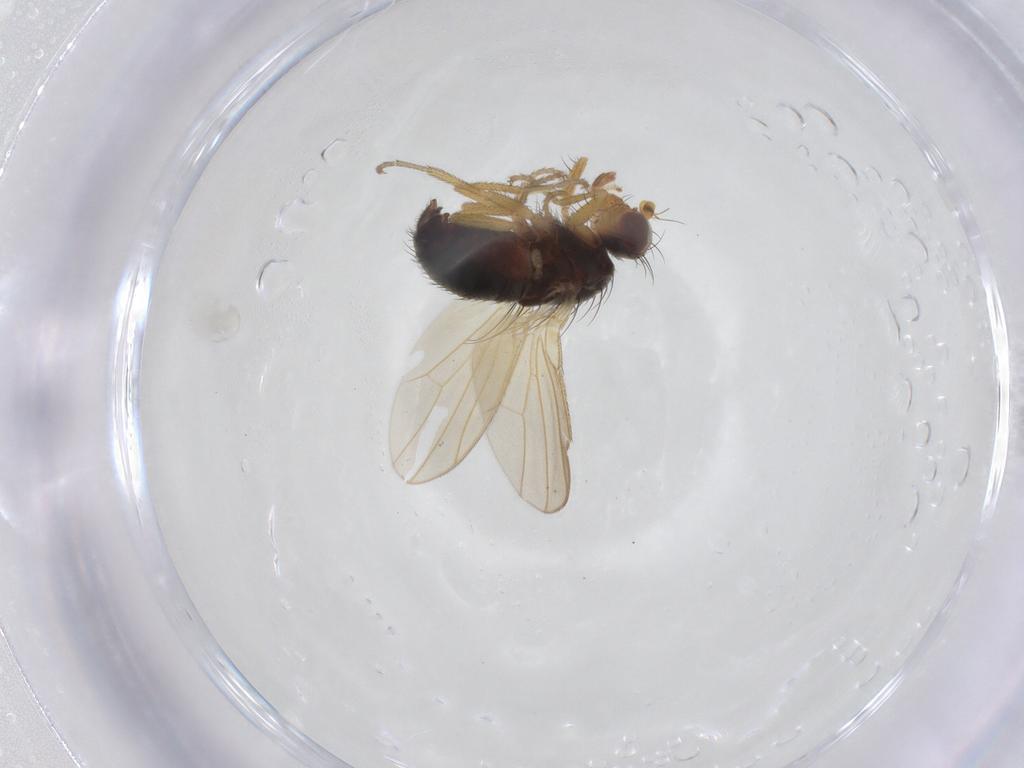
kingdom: Animalia
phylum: Arthropoda
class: Insecta
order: Diptera
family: Heleomyzidae
